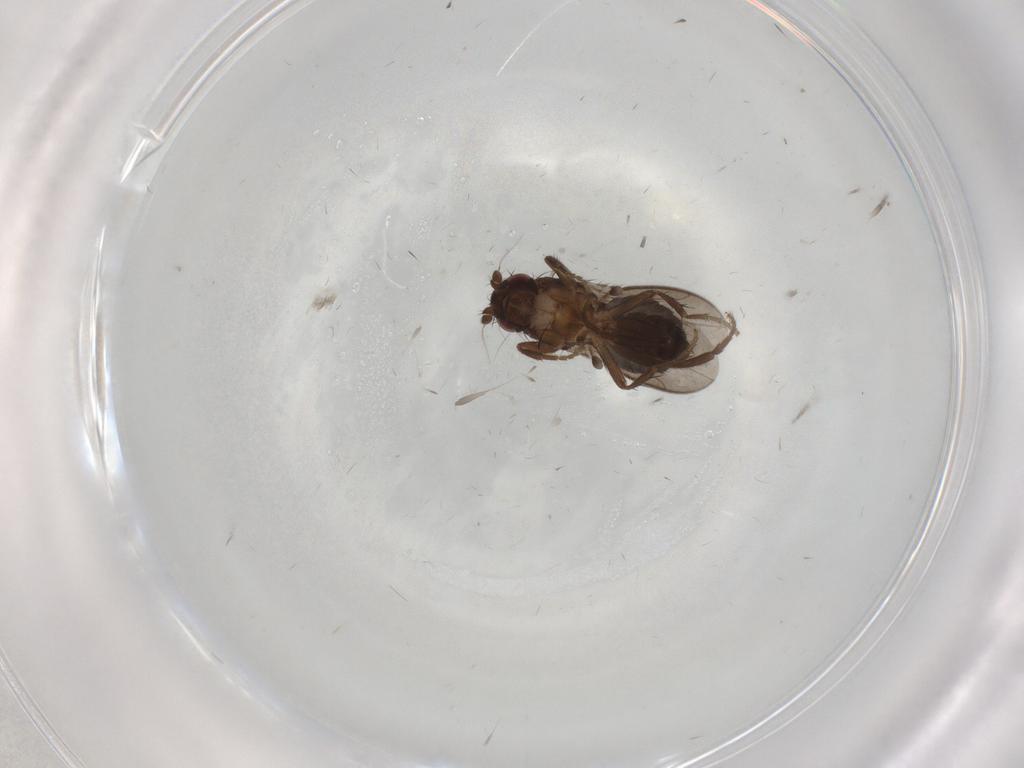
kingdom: Animalia
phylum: Arthropoda
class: Insecta
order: Diptera
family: Sphaeroceridae
